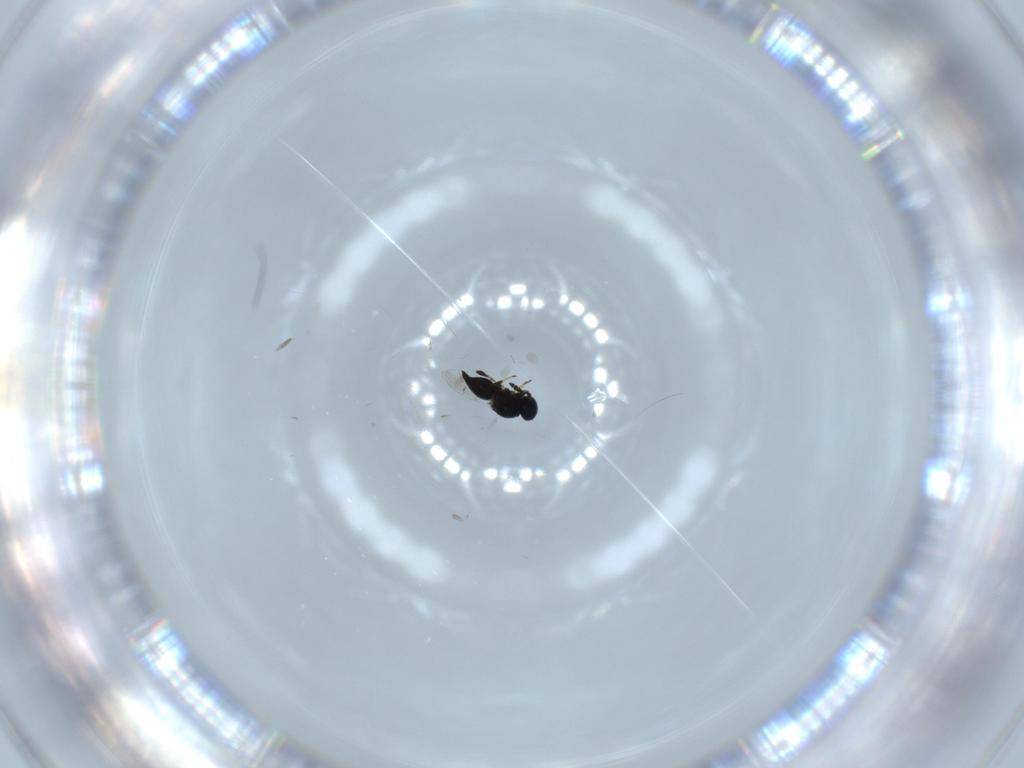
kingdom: Animalia
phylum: Arthropoda
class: Insecta
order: Hymenoptera
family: Platygastridae
